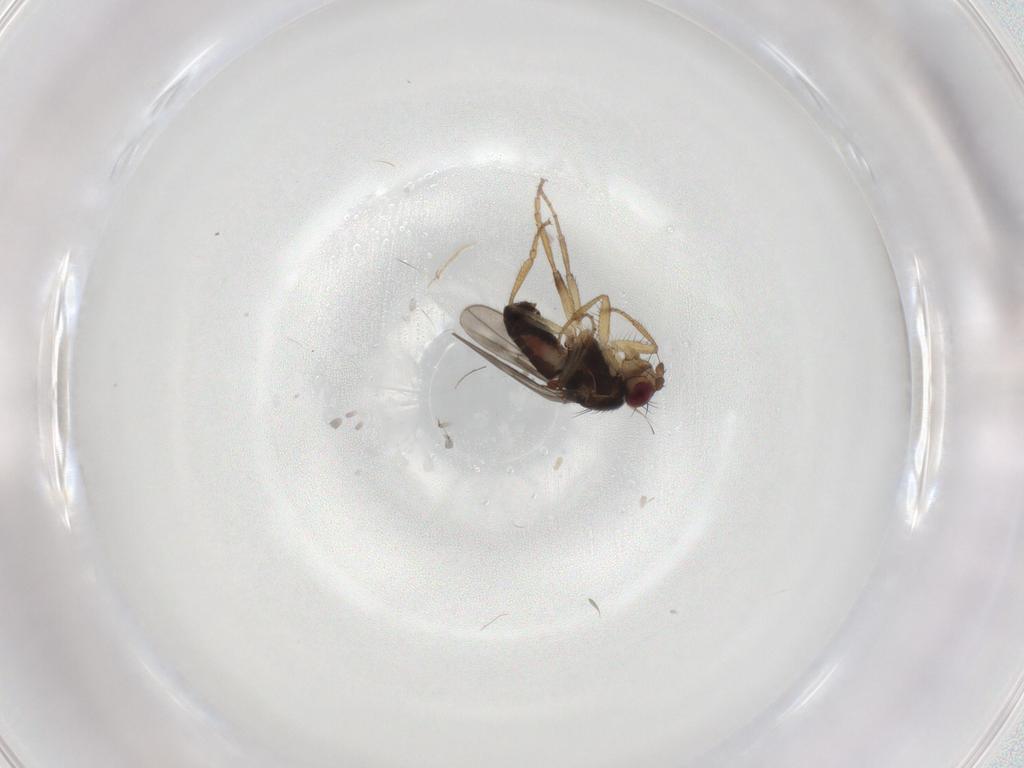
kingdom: Animalia
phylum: Arthropoda
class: Insecta
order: Diptera
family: Sphaeroceridae
